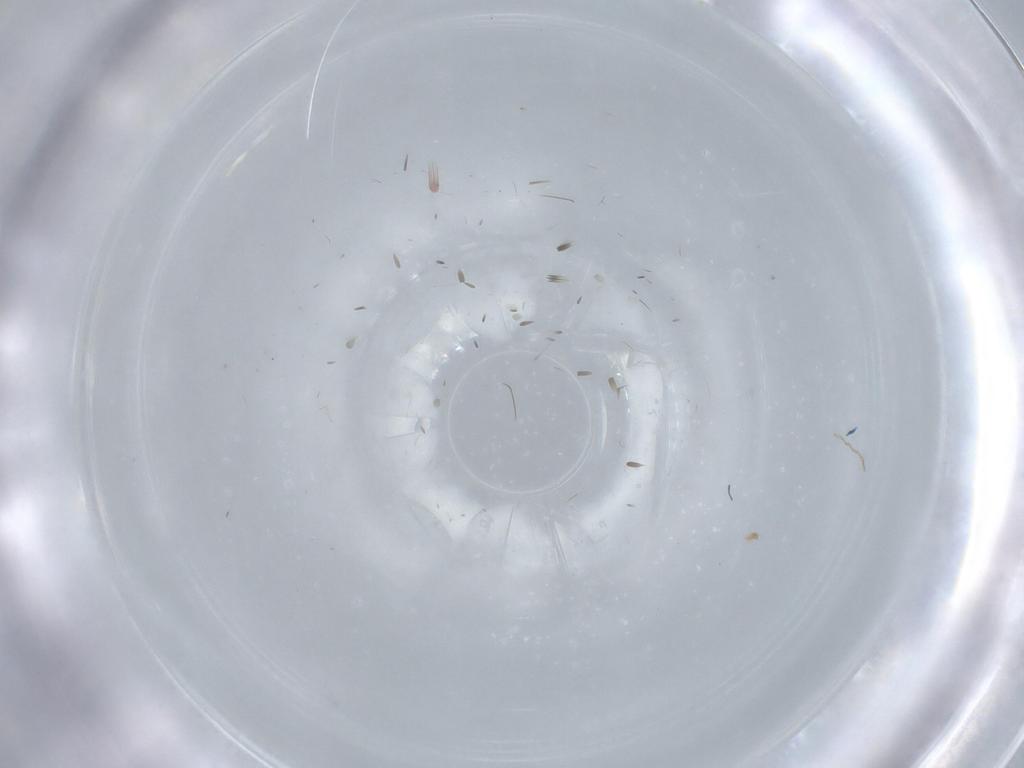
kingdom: Animalia
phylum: Arthropoda
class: Insecta
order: Diptera
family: Cecidomyiidae
